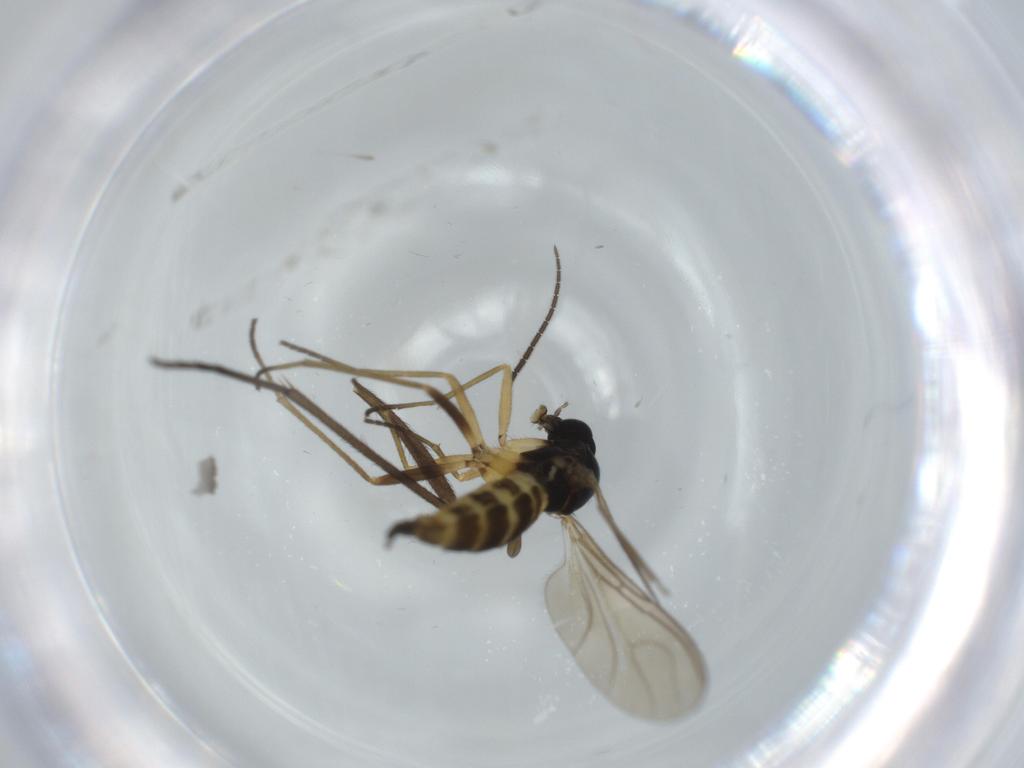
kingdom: Animalia
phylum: Arthropoda
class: Insecta
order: Diptera
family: Sciaridae
